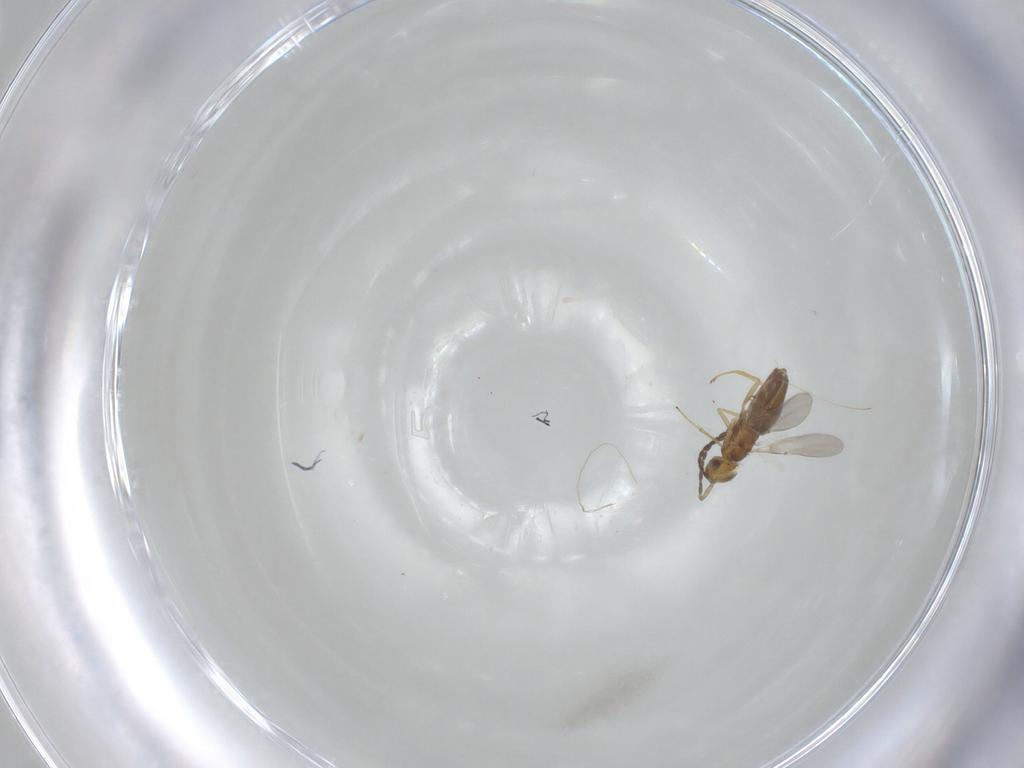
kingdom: Animalia
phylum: Arthropoda
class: Insecta
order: Hymenoptera
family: Encyrtidae
